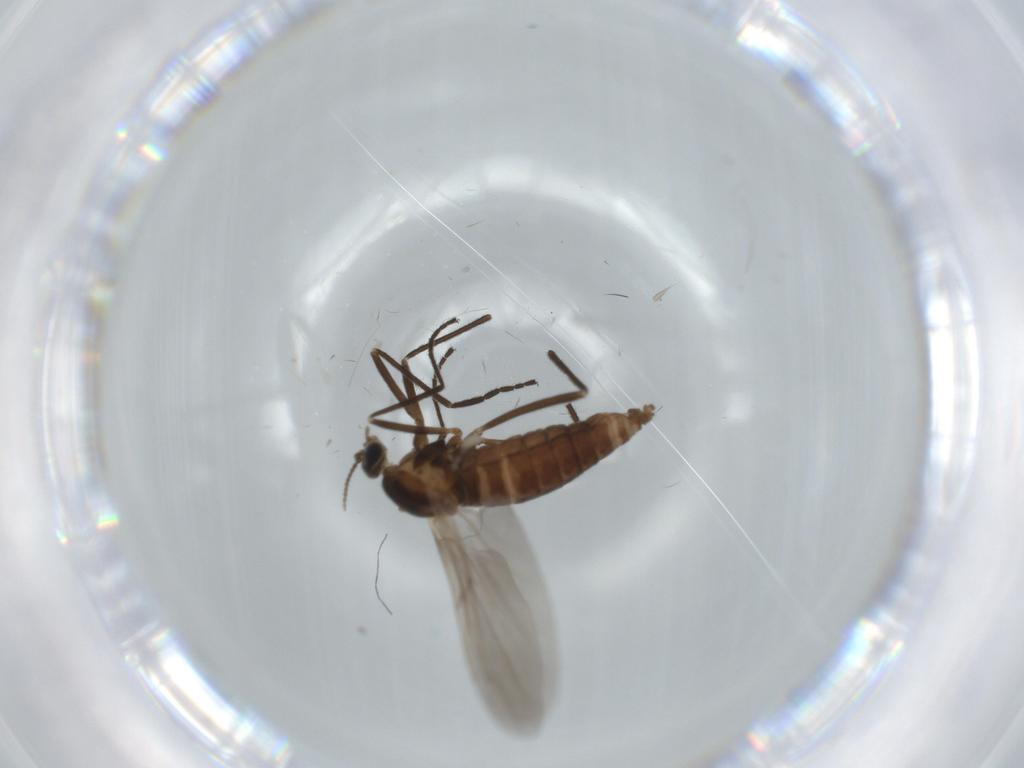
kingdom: Animalia
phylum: Arthropoda
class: Insecta
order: Diptera
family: Cecidomyiidae
